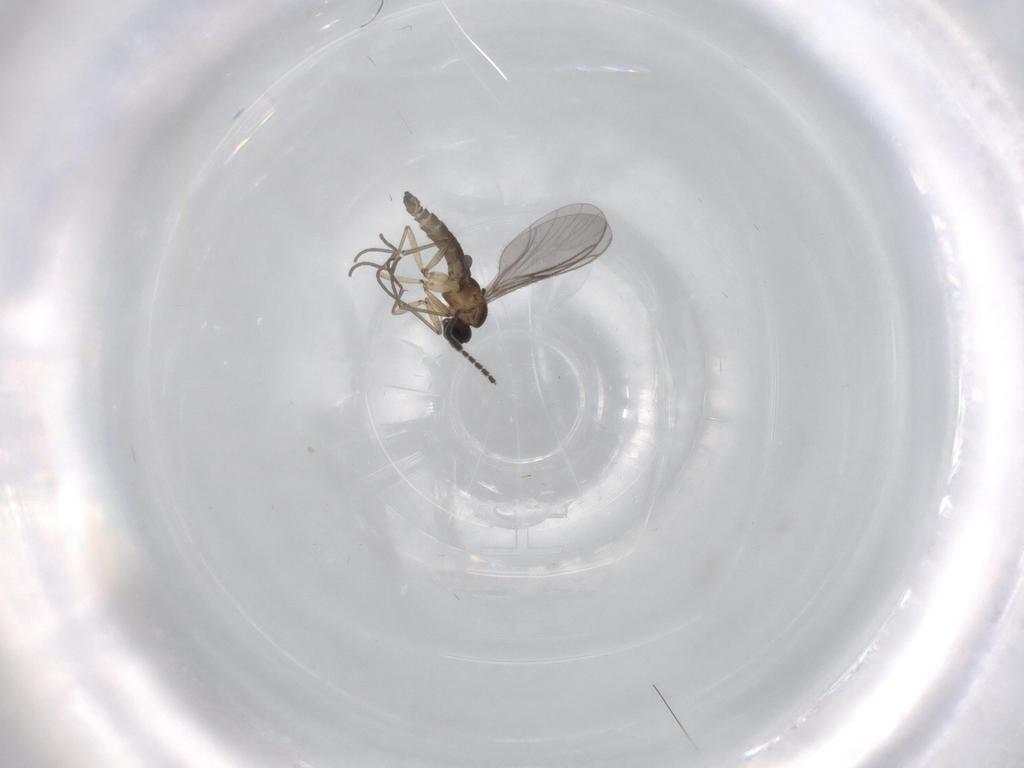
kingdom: Animalia
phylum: Arthropoda
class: Insecta
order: Diptera
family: Sciaridae
